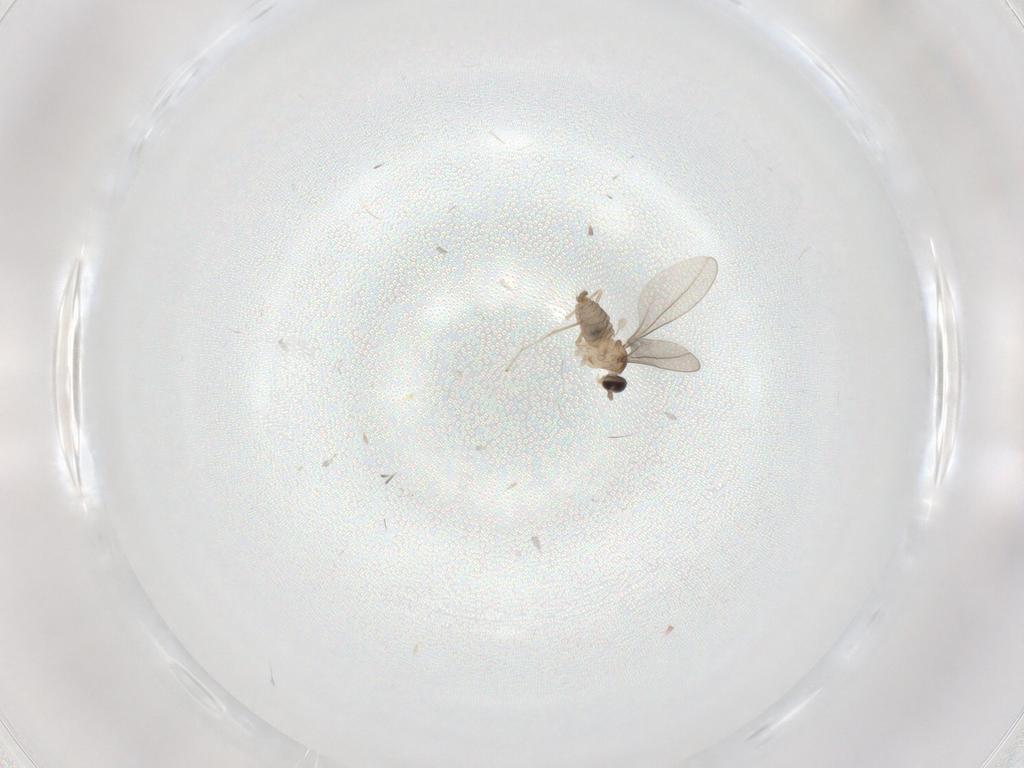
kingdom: Animalia
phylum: Arthropoda
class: Insecta
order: Diptera
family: Cecidomyiidae
